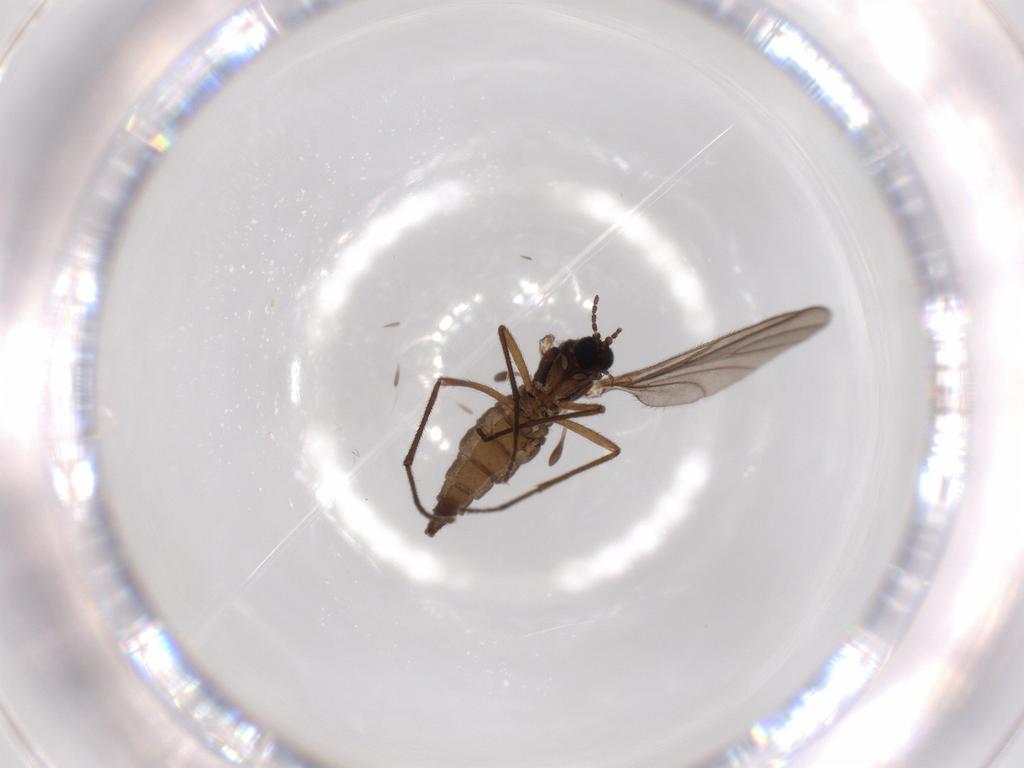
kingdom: Animalia
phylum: Arthropoda
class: Insecta
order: Diptera
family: Sciaridae
